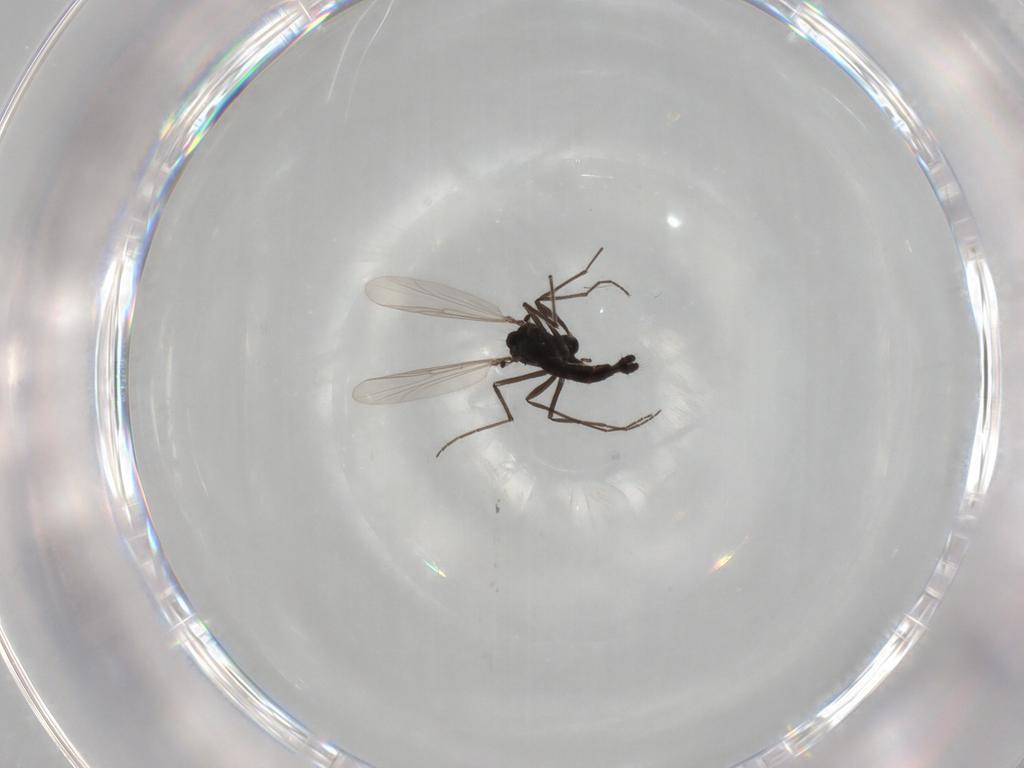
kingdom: Animalia
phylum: Arthropoda
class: Insecta
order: Diptera
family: Chironomidae
